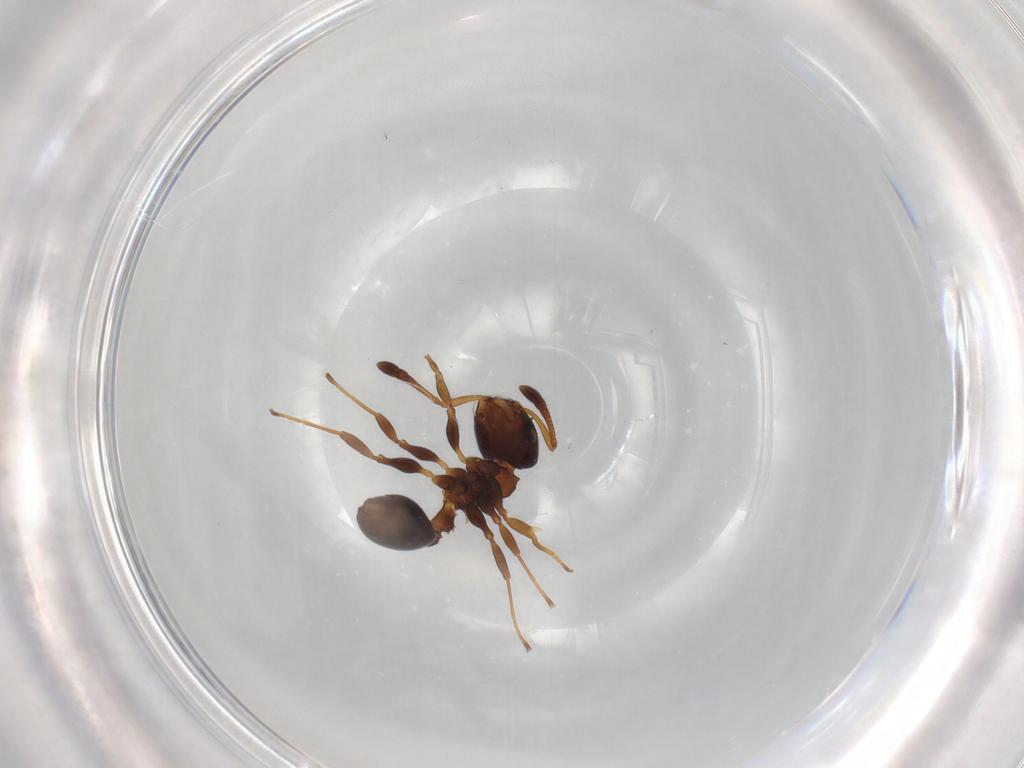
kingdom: Animalia
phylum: Arthropoda
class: Insecta
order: Hymenoptera
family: Formicidae
